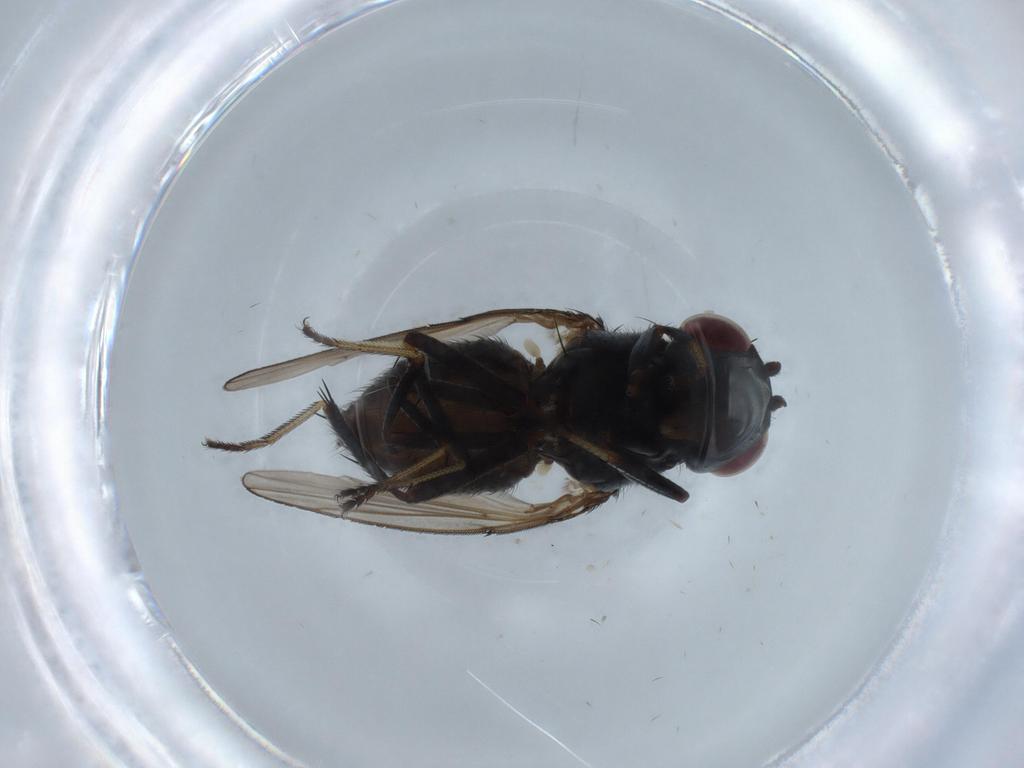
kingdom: Animalia
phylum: Arthropoda
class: Insecta
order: Diptera
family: Ephydridae
